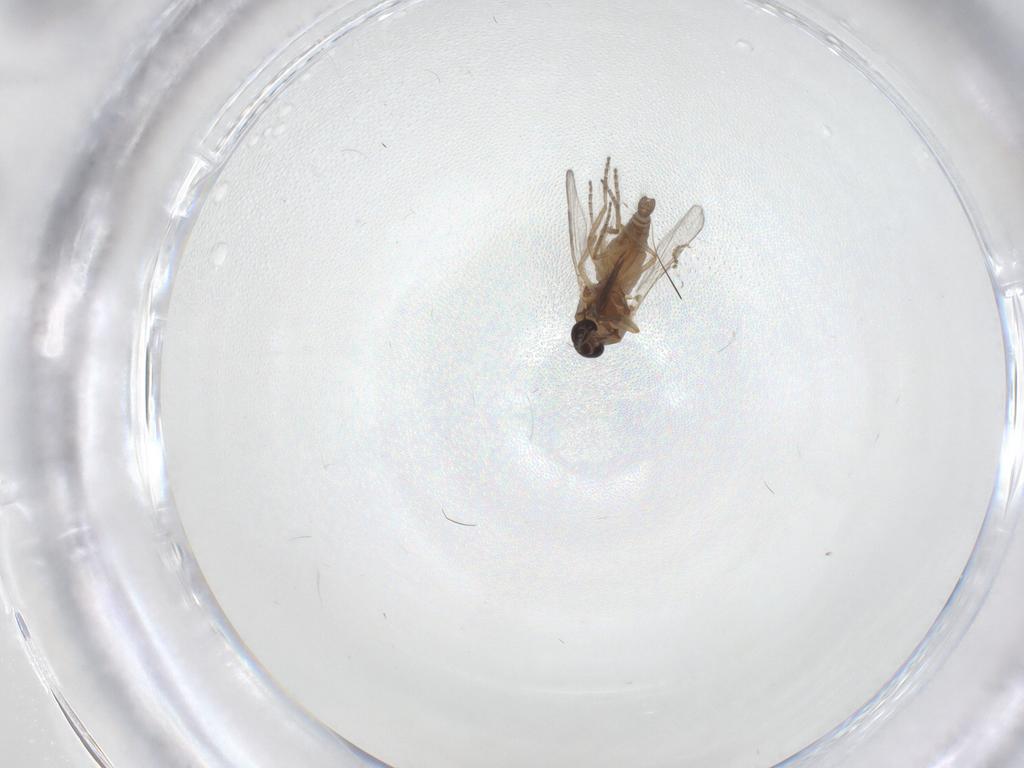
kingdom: Animalia
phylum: Arthropoda
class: Insecta
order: Diptera
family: Ceratopogonidae
